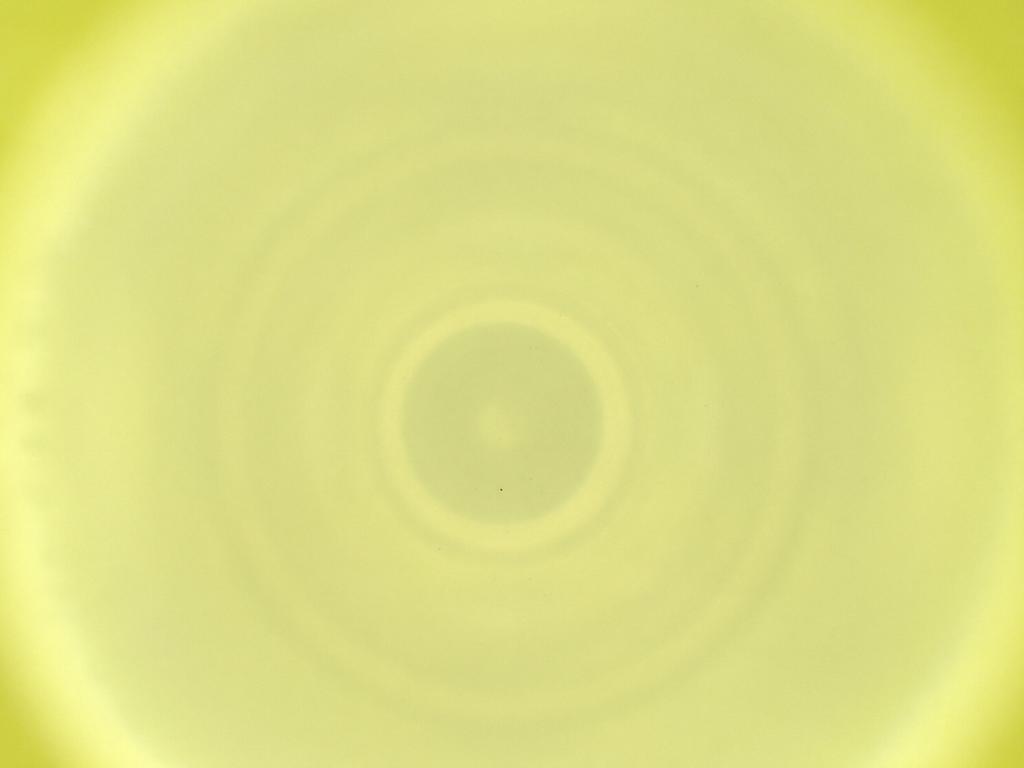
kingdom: Animalia
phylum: Arthropoda
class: Insecta
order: Diptera
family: Cecidomyiidae
